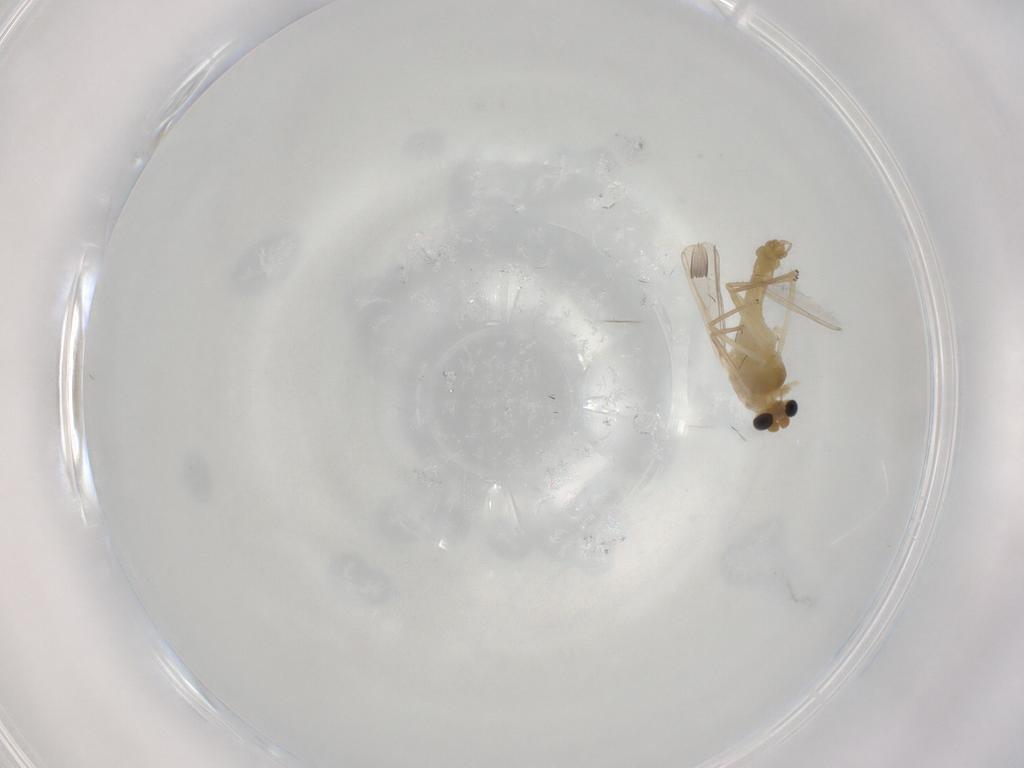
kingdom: Animalia
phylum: Arthropoda
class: Insecta
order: Diptera
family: Chironomidae
